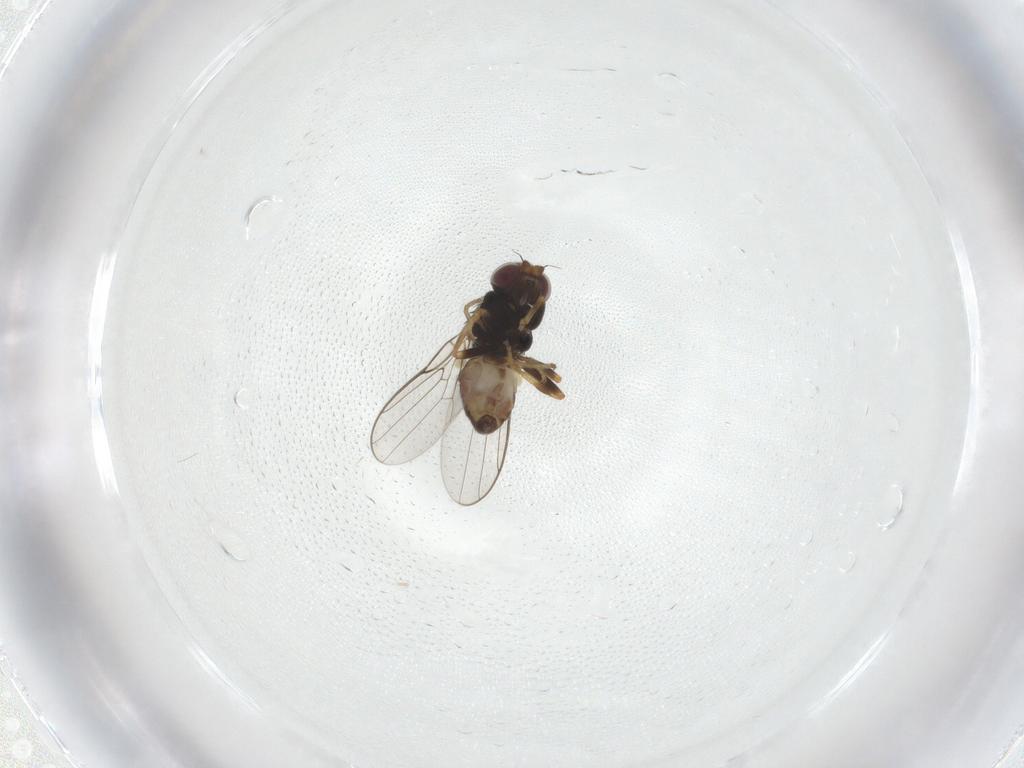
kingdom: Animalia
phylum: Arthropoda
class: Insecta
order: Diptera
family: Chloropidae
